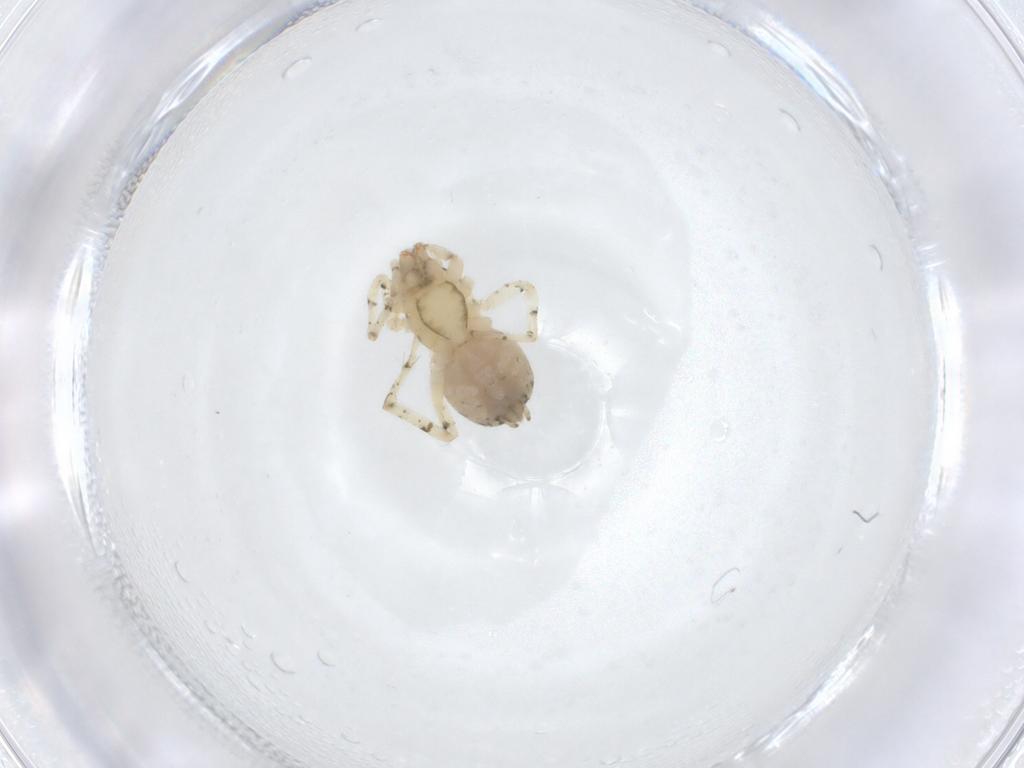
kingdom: Animalia
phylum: Arthropoda
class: Arachnida
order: Araneae
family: Anyphaenidae
